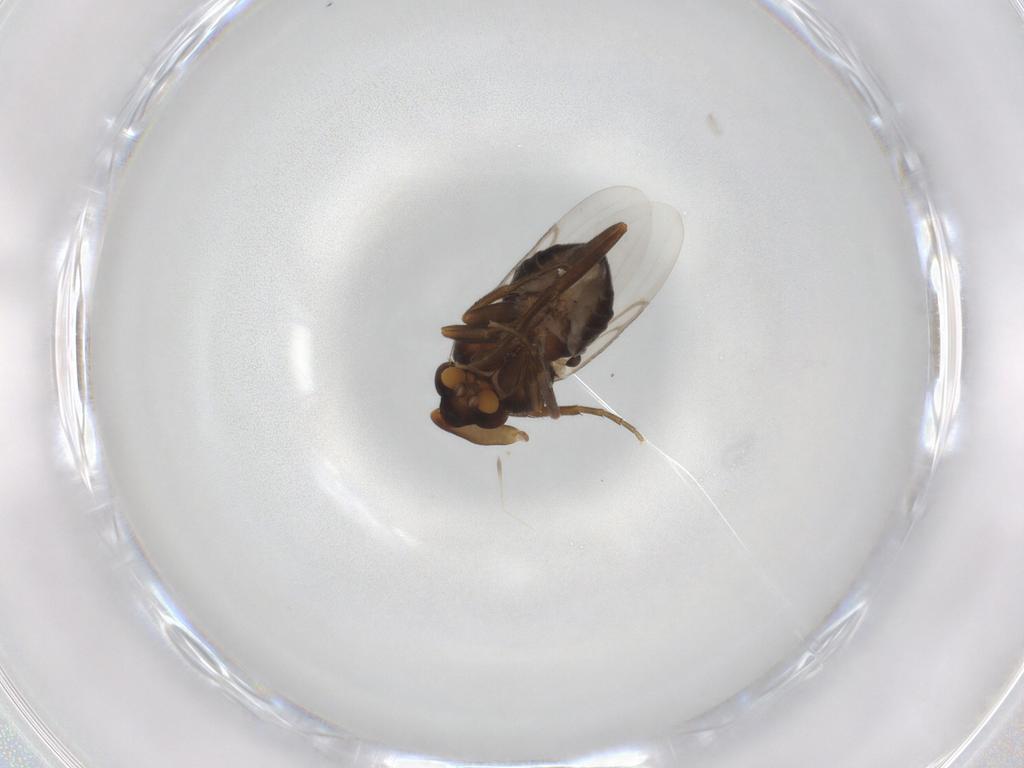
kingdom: Animalia
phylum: Arthropoda
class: Insecta
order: Diptera
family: Phoridae
